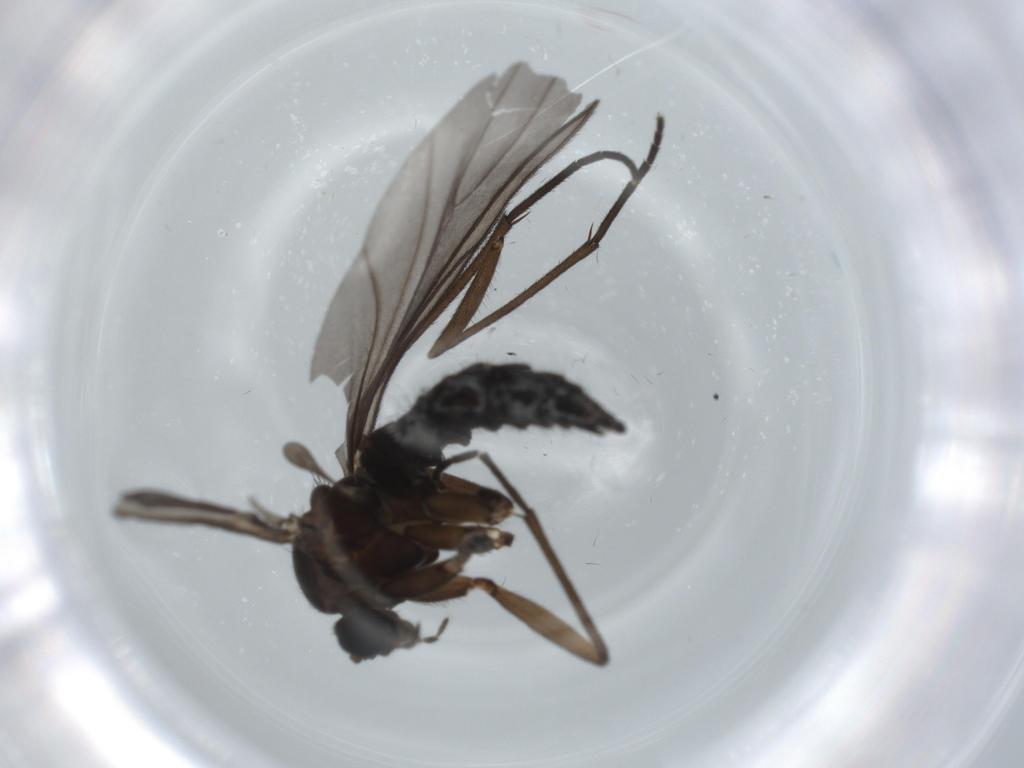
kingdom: Animalia
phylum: Arthropoda
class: Insecta
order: Diptera
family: Sciaridae
